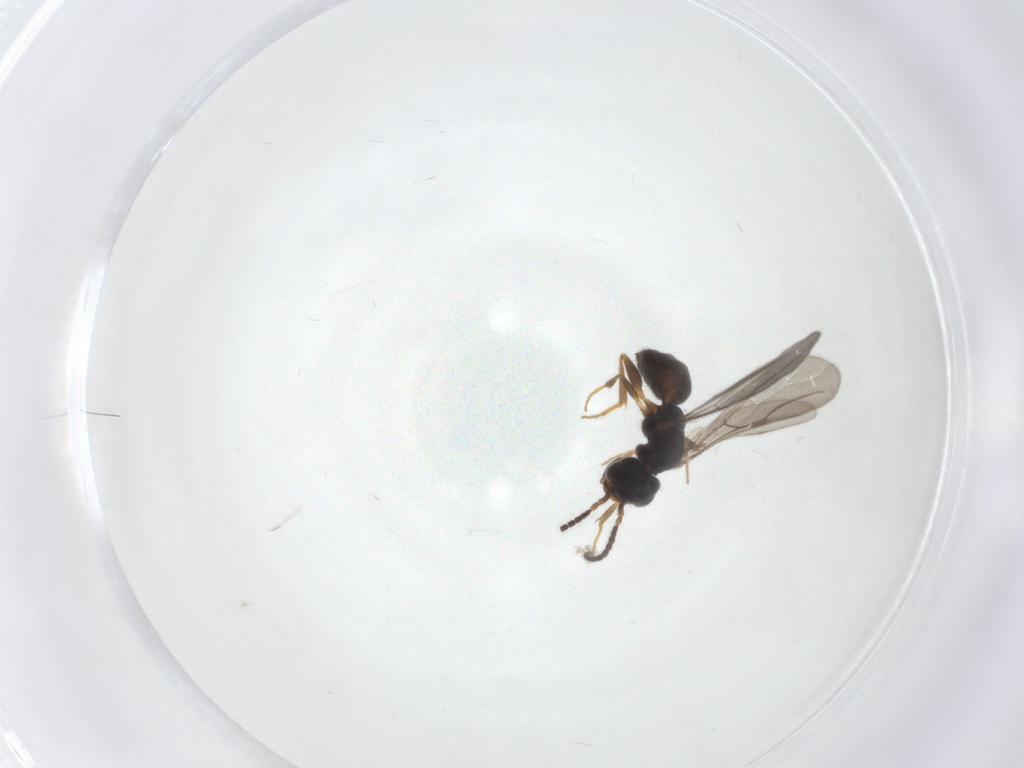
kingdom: Animalia
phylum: Arthropoda
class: Insecta
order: Hymenoptera
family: Bethylidae
